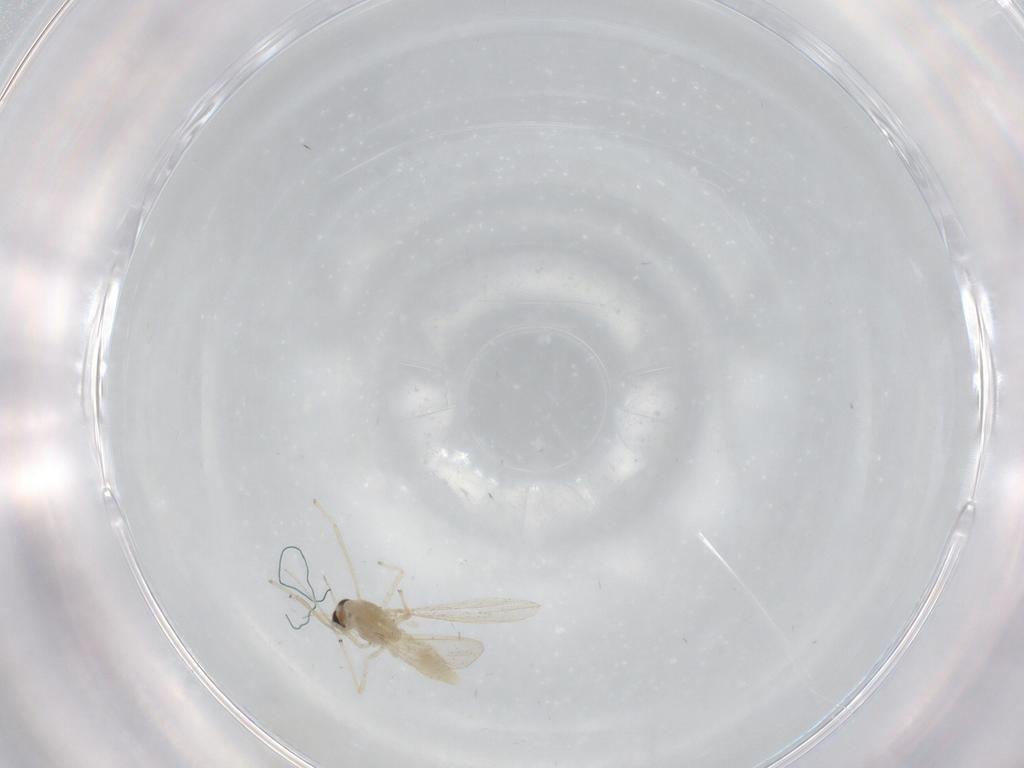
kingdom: Animalia
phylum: Arthropoda
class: Insecta
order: Diptera
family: Chironomidae
